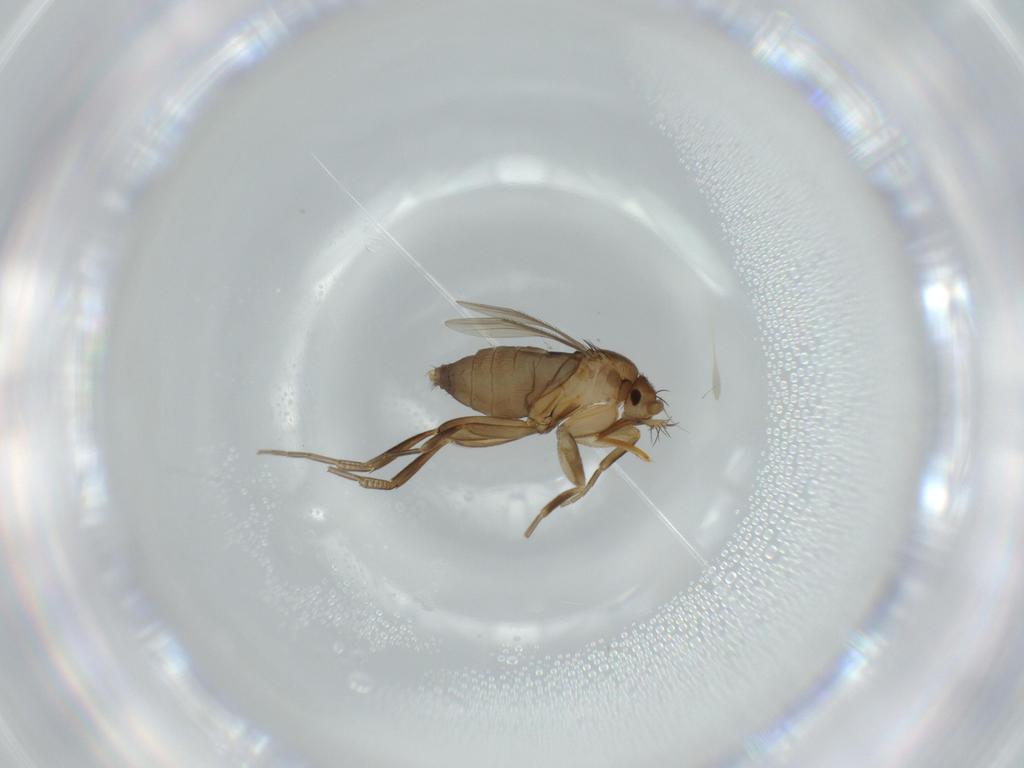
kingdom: Animalia
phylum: Arthropoda
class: Insecta
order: Diptera
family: Phoridae
